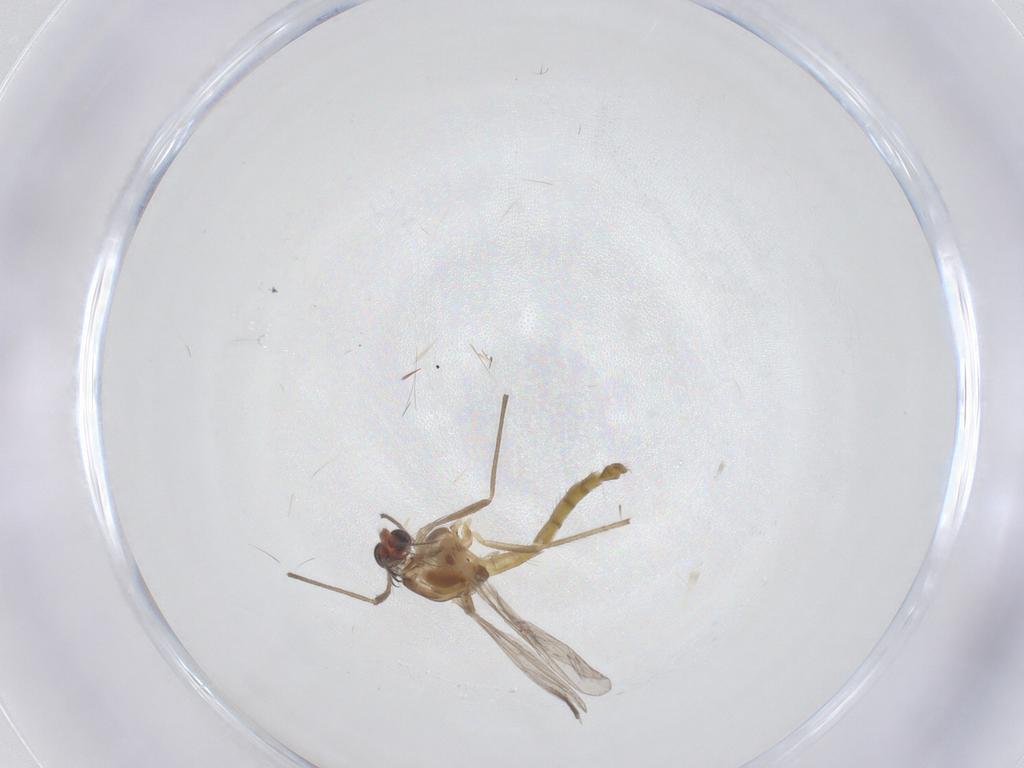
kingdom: Animalia
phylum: Arthropoda
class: Insecta
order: Diptera
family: Chironomidae
